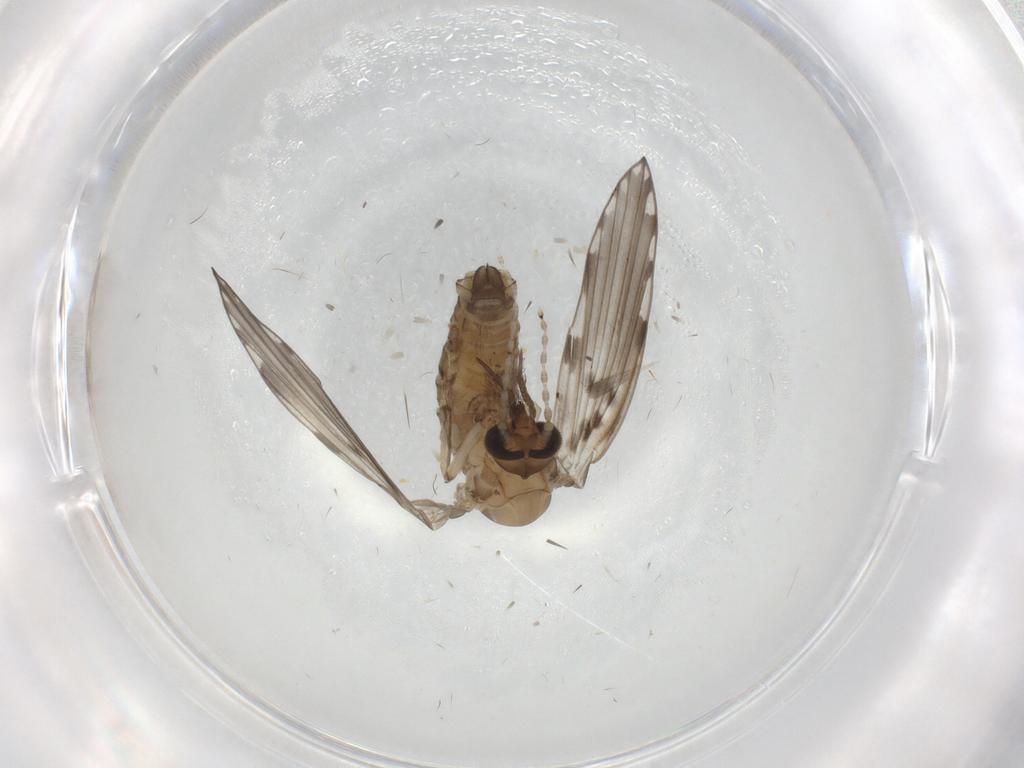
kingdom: Animalia
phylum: Arthropoda
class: Insecta
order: Diptera
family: Psychodidae
